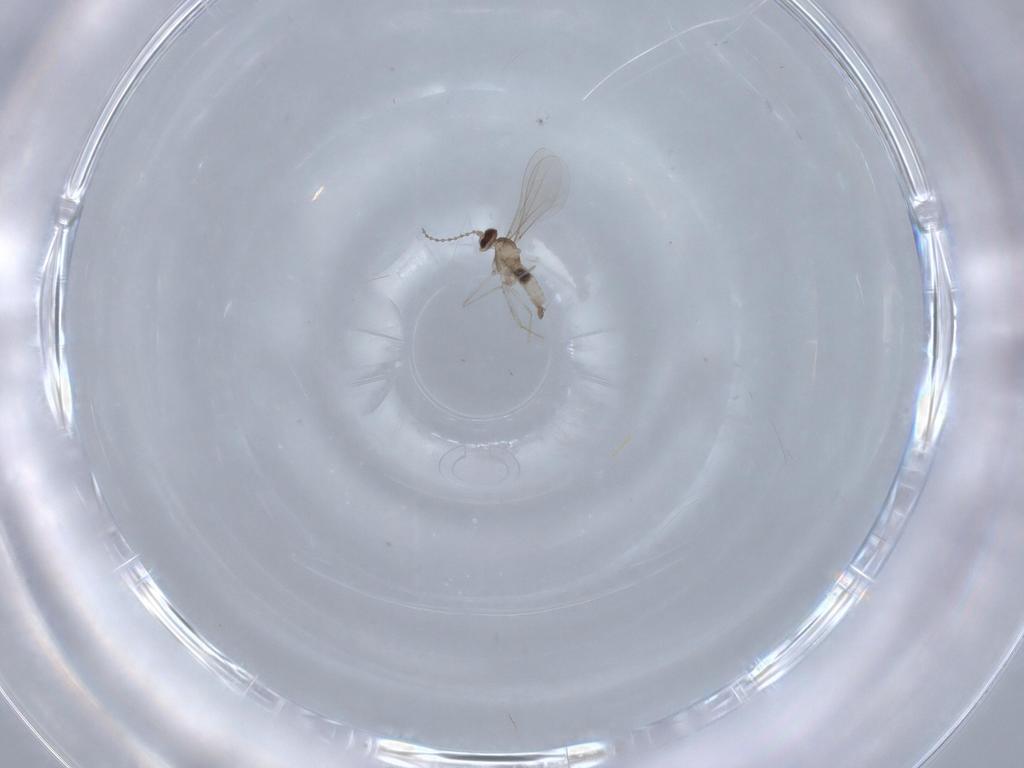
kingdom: Animalia
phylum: Arthropoda
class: Insecta
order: Diptera
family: Cecidomyiidae
